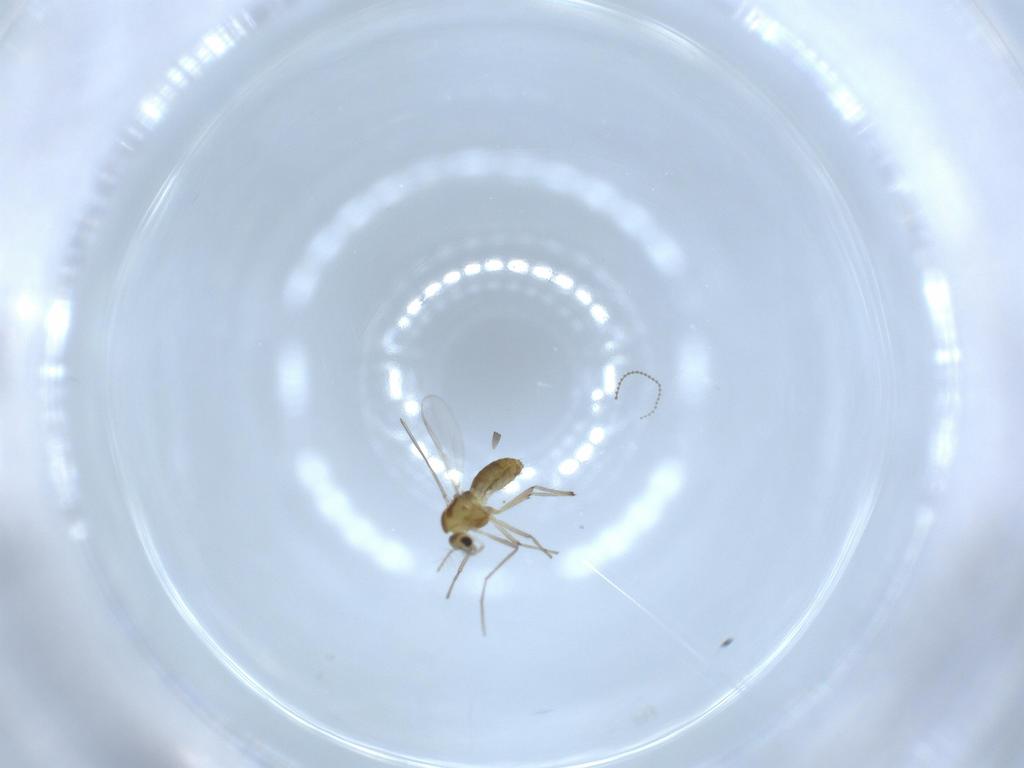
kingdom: Animalia
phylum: Arthropoda
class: Insecta
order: Diptera
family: Chironomidae
